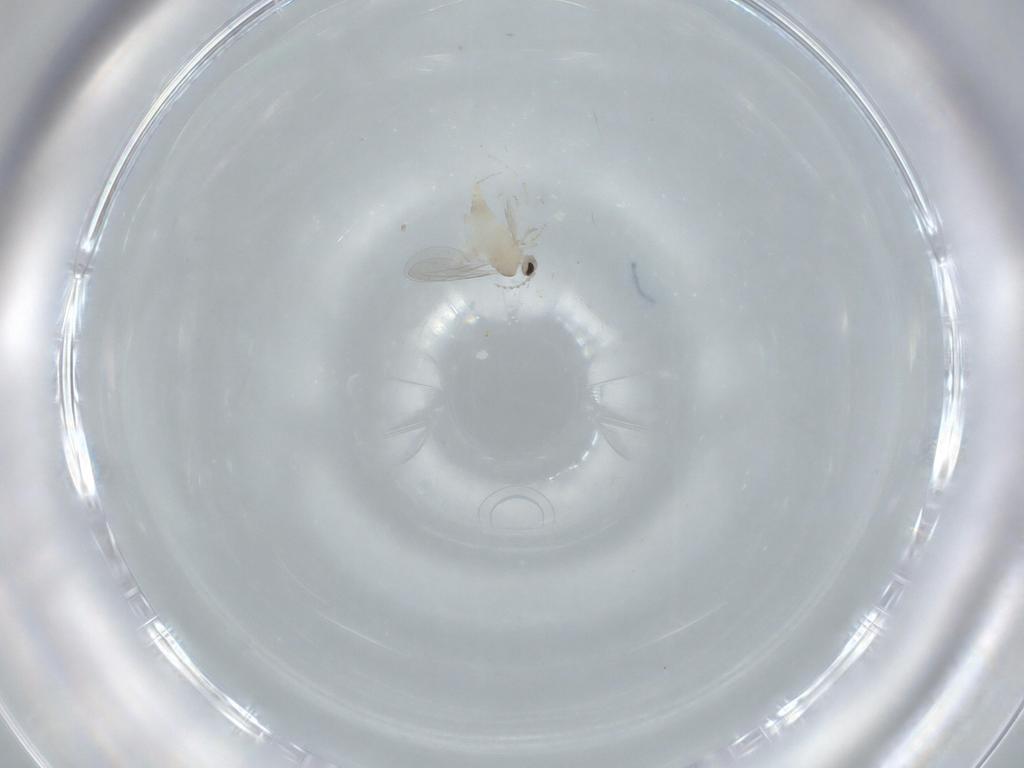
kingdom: Animalia
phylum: Arthropoda
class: Insecta
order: Diptera
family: Cecidomyiidae
